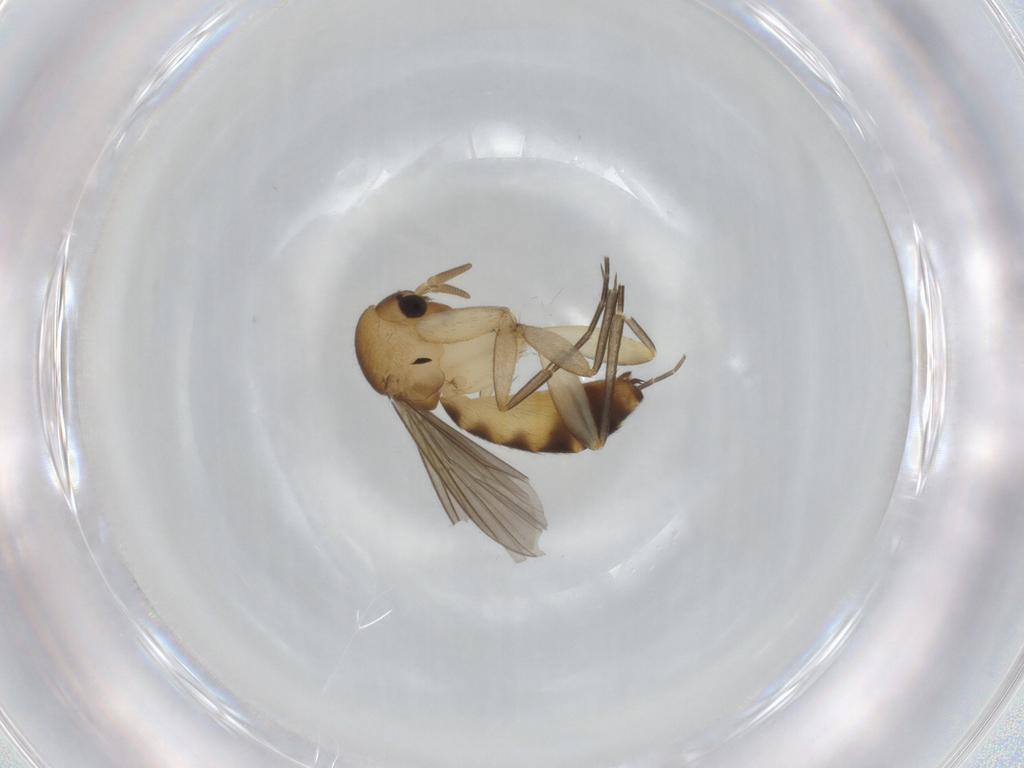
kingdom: Animalia
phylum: Arthropoda
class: Insecta
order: Diptera
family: Mycetophilidae
